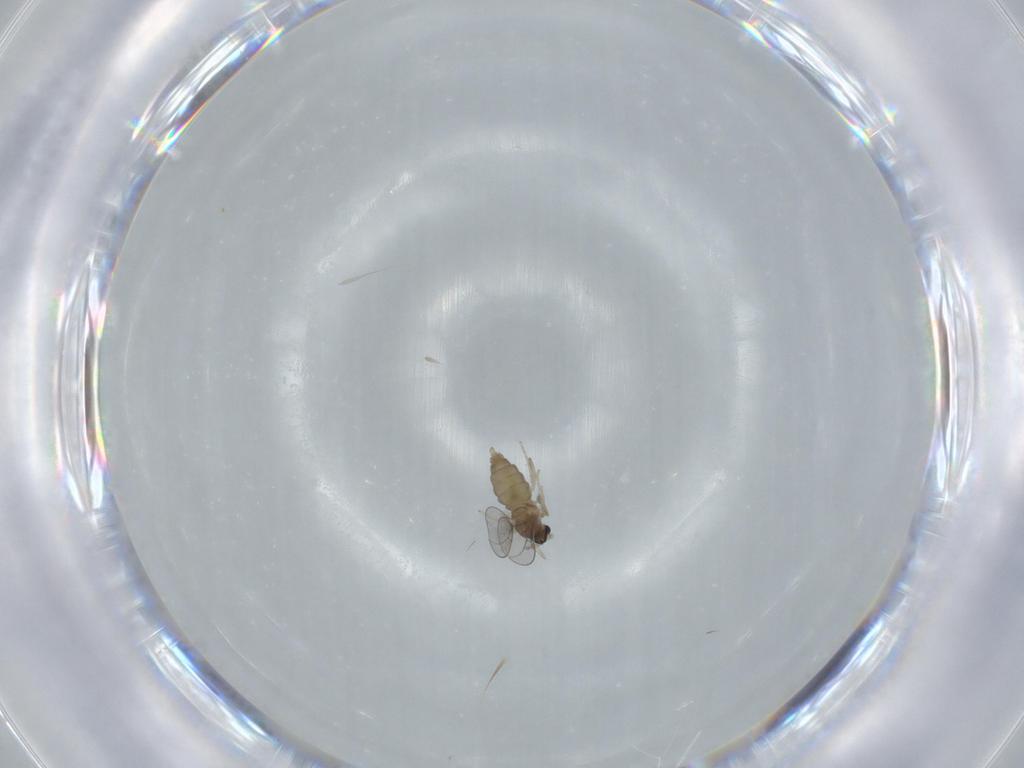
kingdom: Animalia
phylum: Arthropoda
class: Insecta
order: Diptera
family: Cecidomyiidae
